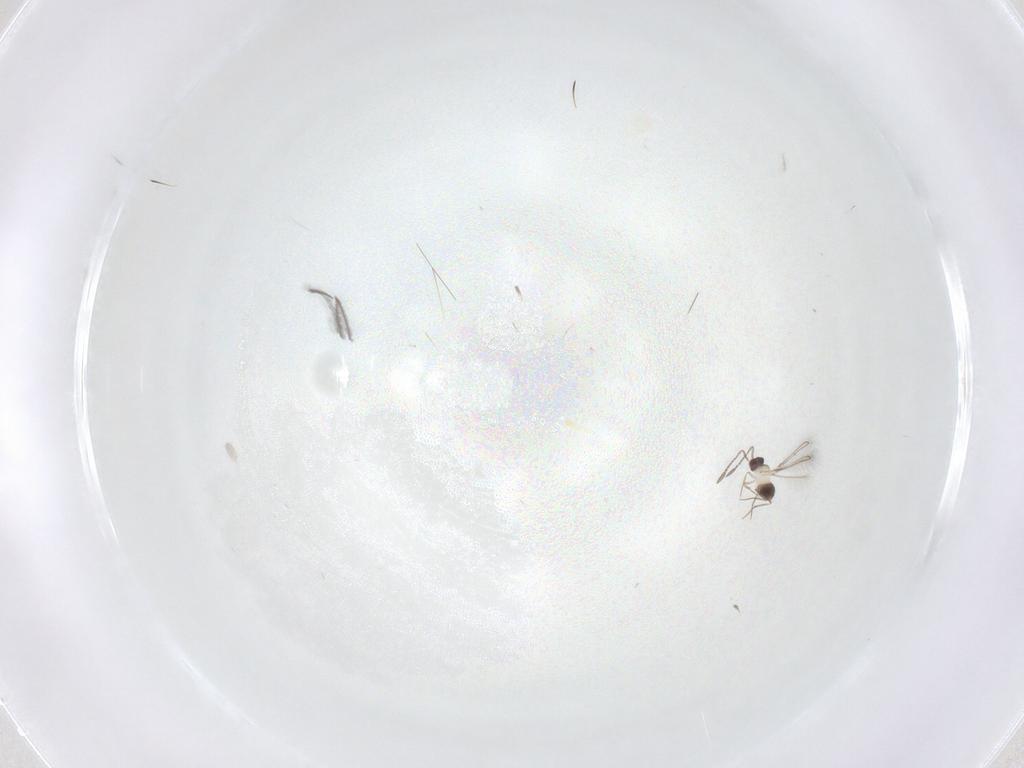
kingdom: Animalia
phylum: Arthropoda
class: Insecta
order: Hymenoptera
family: Mymaridae
